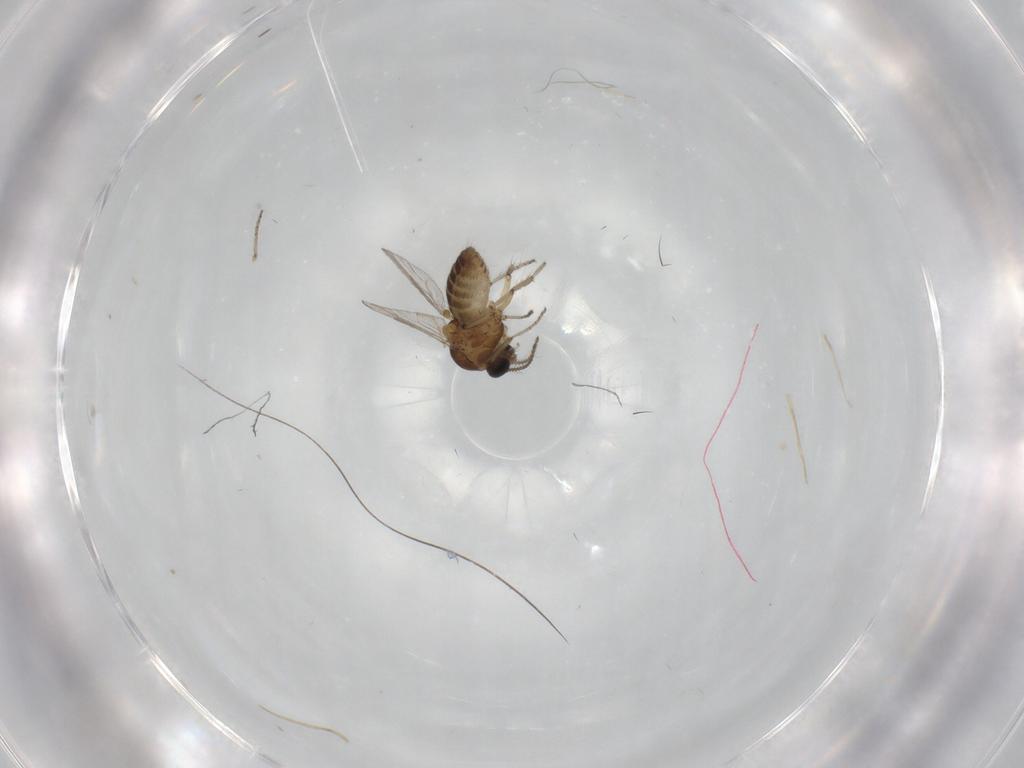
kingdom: Animalia
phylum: Arthropoda
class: Insecta
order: Diptera
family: Ceratopogonidae
